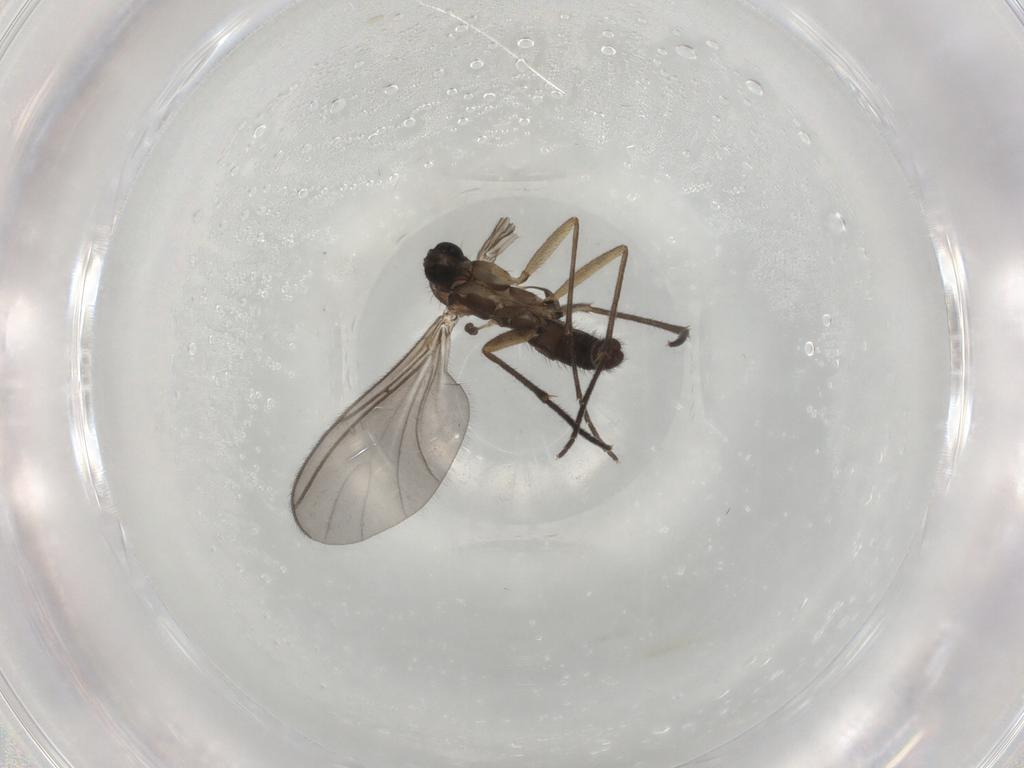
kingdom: Animalia
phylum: Arthropoda
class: Insecta
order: Diptera
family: Sciaridae
